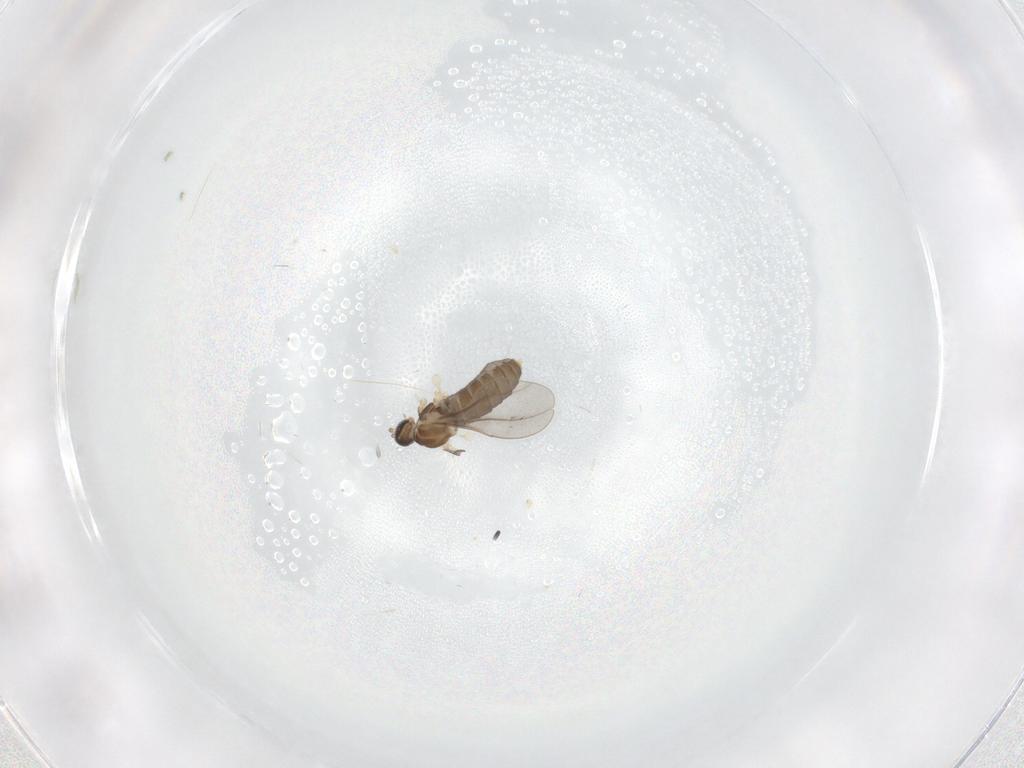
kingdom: Animalia
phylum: Arthropoda
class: Insecta
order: Diptera
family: Cecidomyiidae
